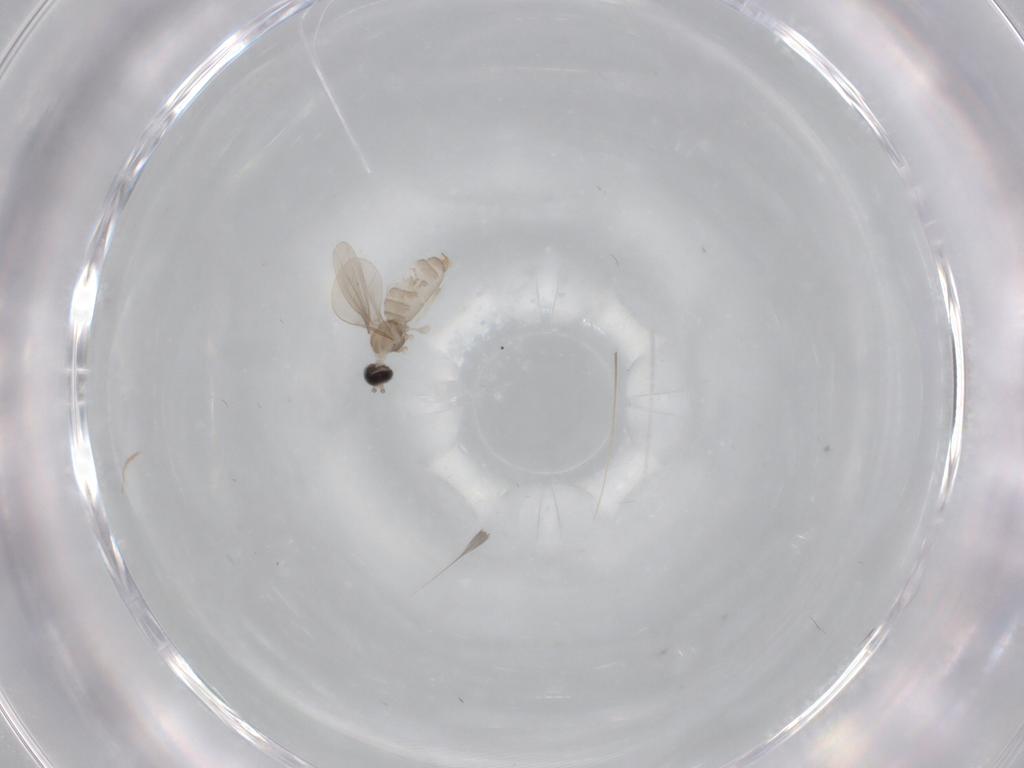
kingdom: Animalia
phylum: Arthropoda
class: Insecta
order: Diptera
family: Cecidomyiidae
